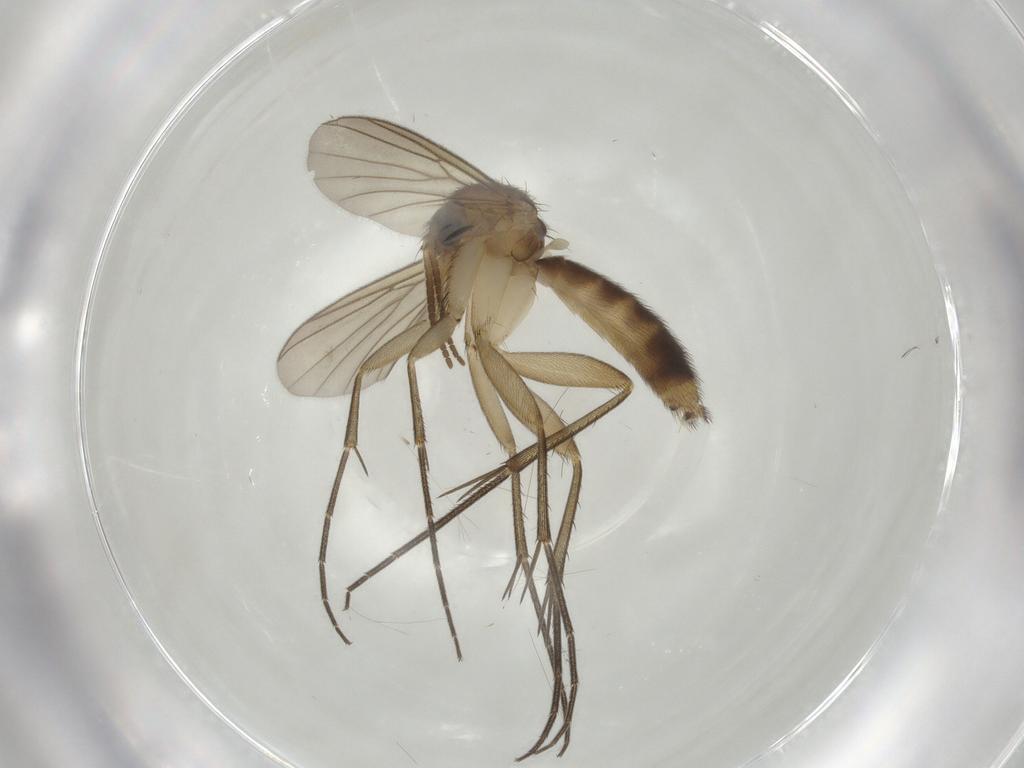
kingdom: Animalia
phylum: Arthropoda
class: Insecta
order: Diptera
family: Mycetophilidae
